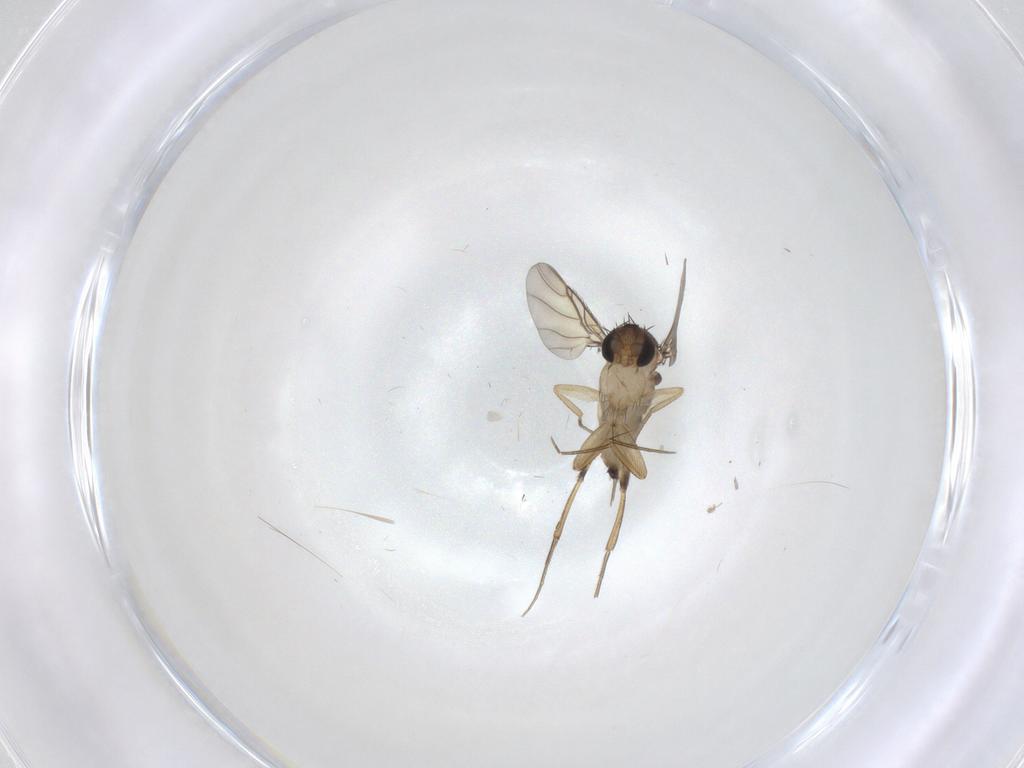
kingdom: Animalia
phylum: Arthropoda
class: Insecta
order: Diptera
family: Phoridae
